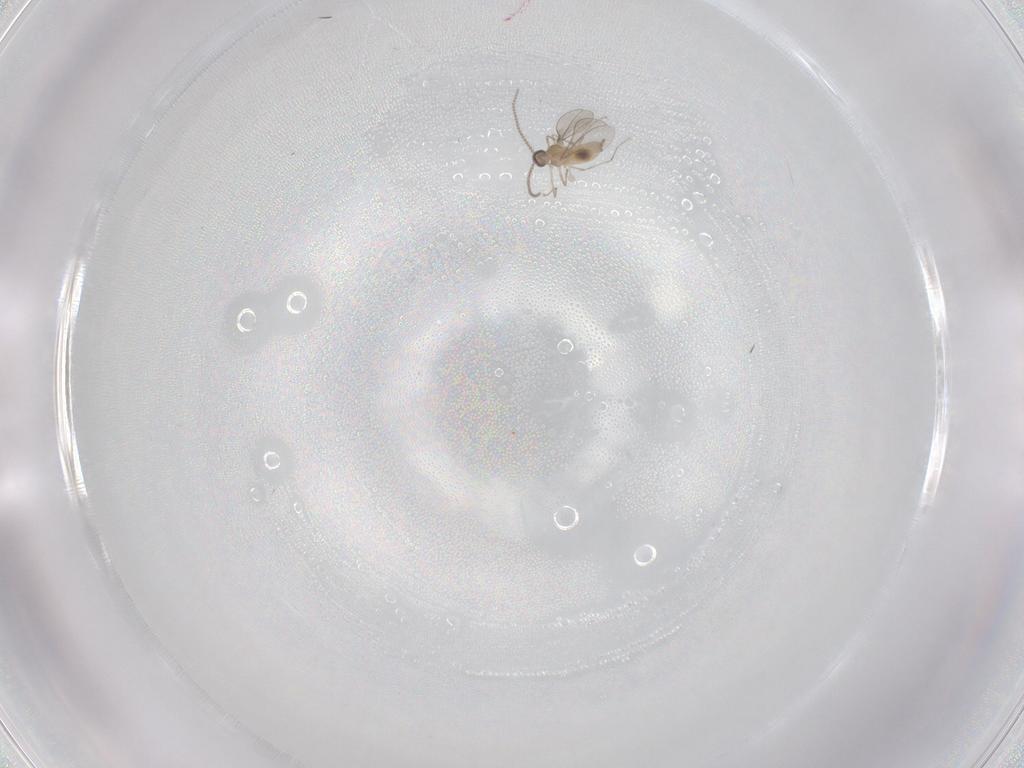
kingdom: Animalia
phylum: Arthropoda
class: Insecta
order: Diptera
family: Cecidomyiidae
